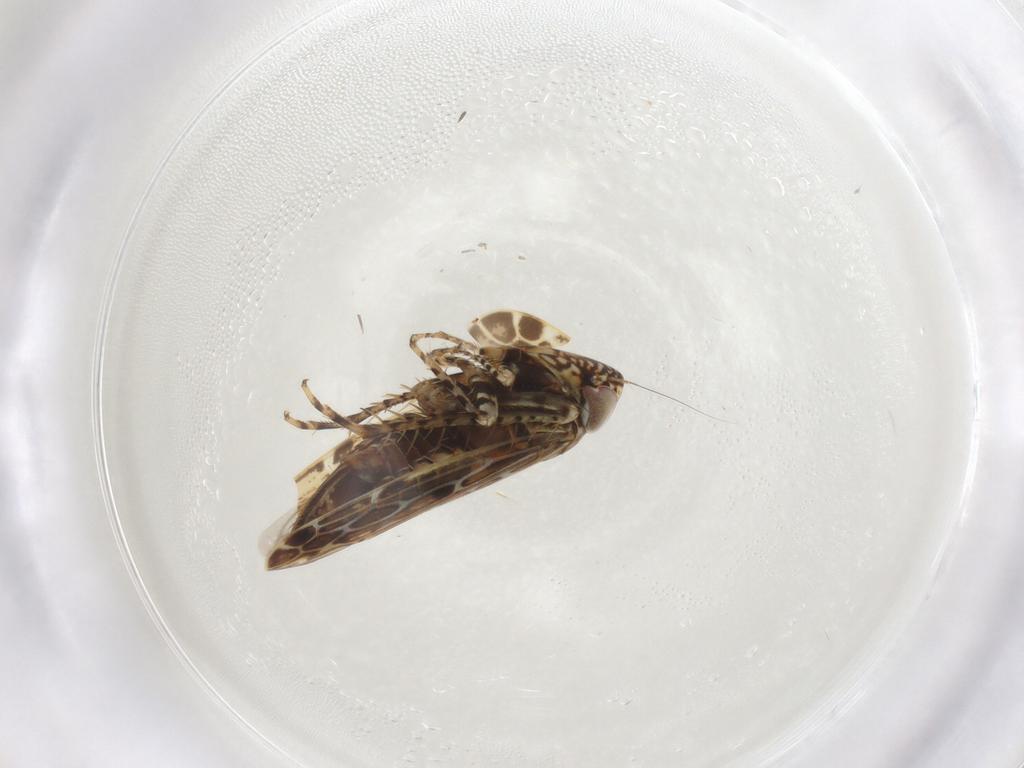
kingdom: Animalia
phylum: Arthropoda
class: Insecta
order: Hemiptera
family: Cicadellidae
